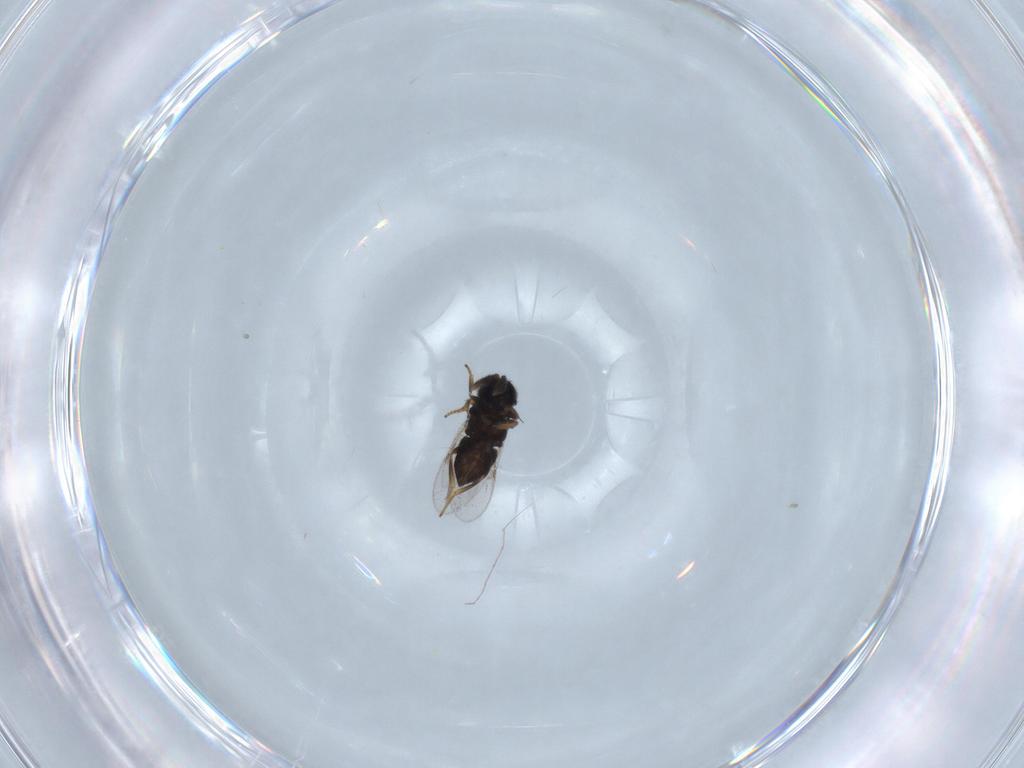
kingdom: Animalia
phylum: Arthropoda
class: Insecta
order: Hymenoptera
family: Encyrtidae
